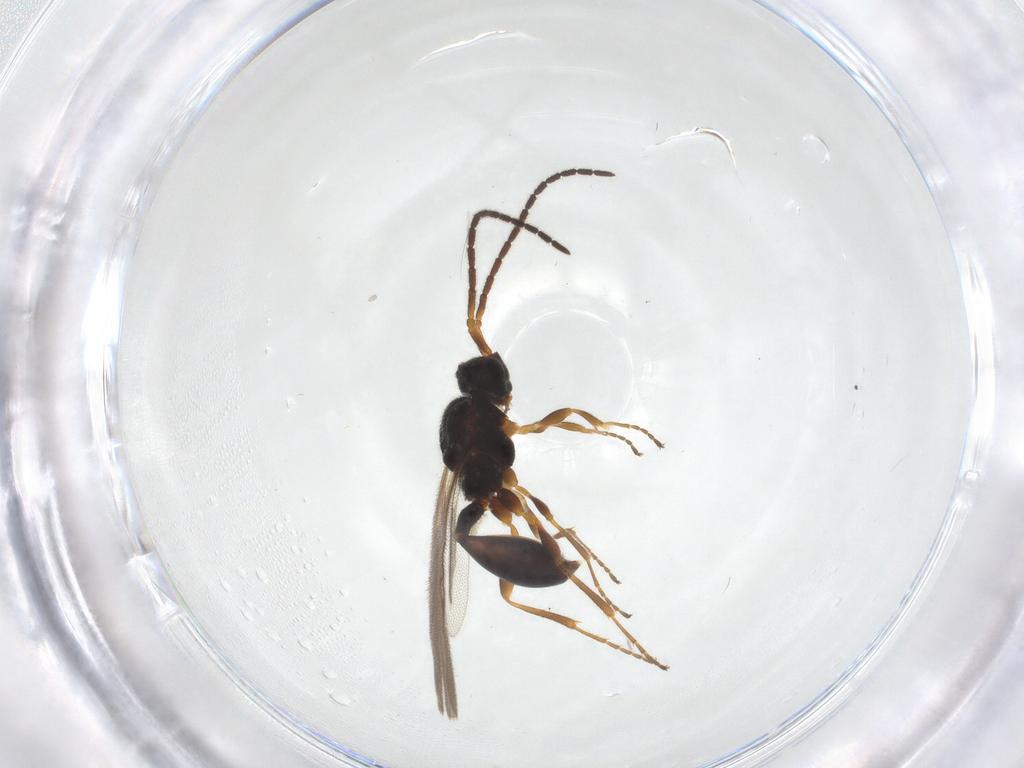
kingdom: Animalia
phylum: Arthropoda
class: Insecta
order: Hymenoptera
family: Diapriidae
